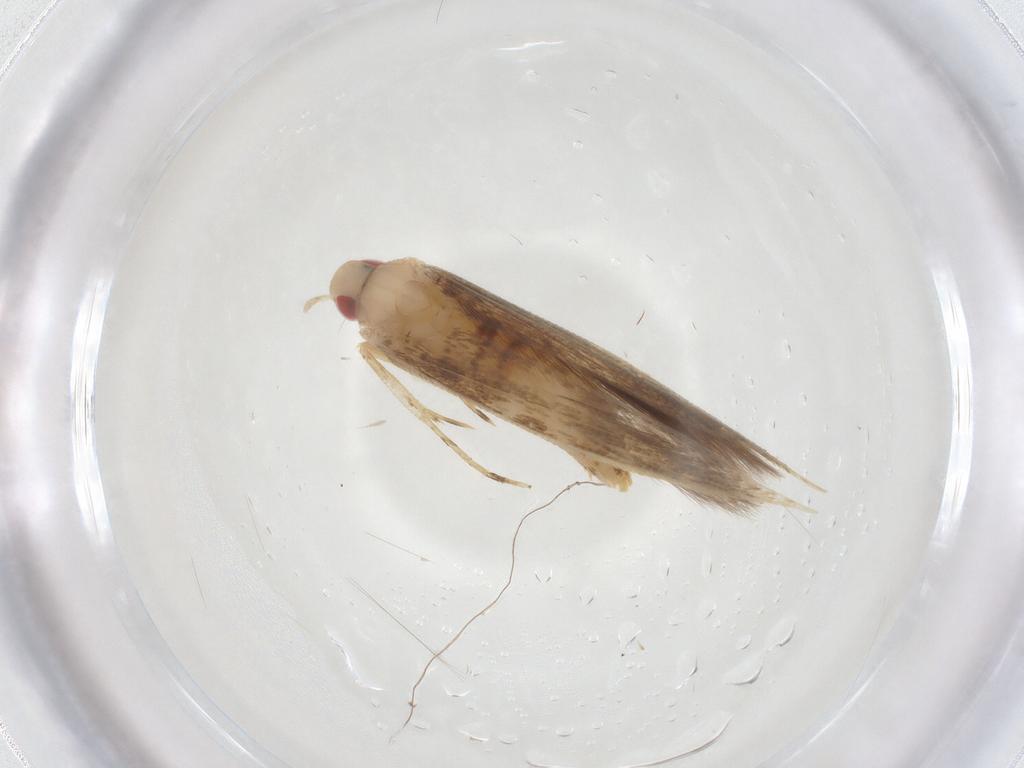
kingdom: Animalia
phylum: Arthropoda
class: Insecta
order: Lepidoptera
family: Cosmopterigidae
